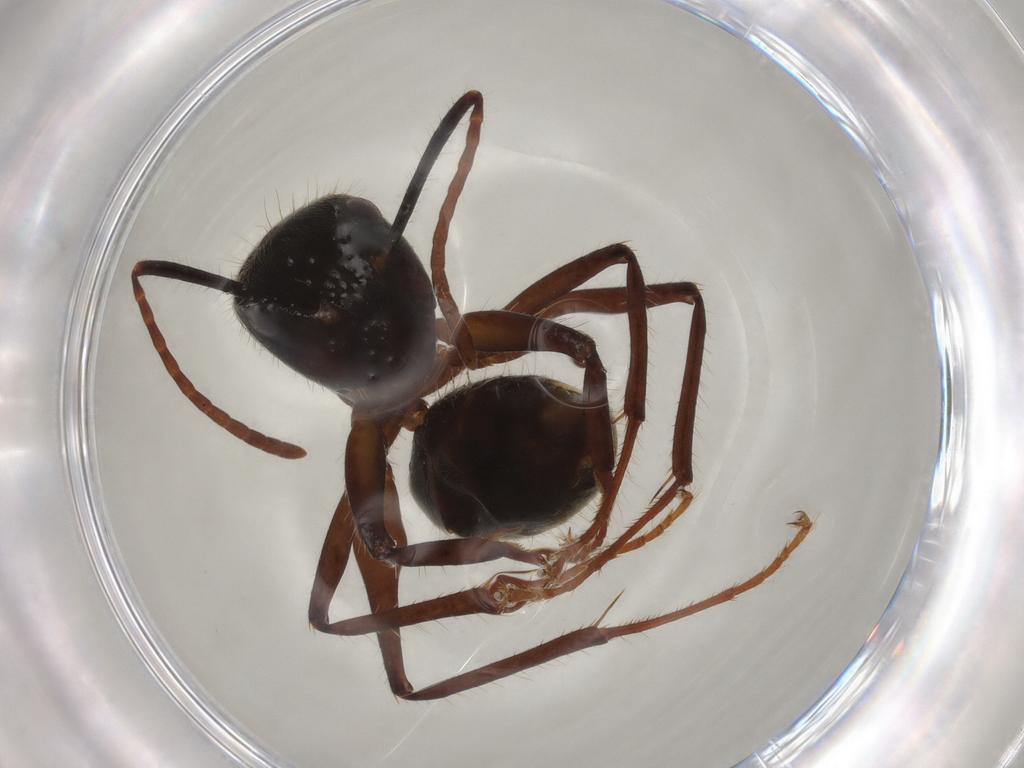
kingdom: Animalia
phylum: Arthropoda
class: Insecta
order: Hymenoptera
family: Formicidae
